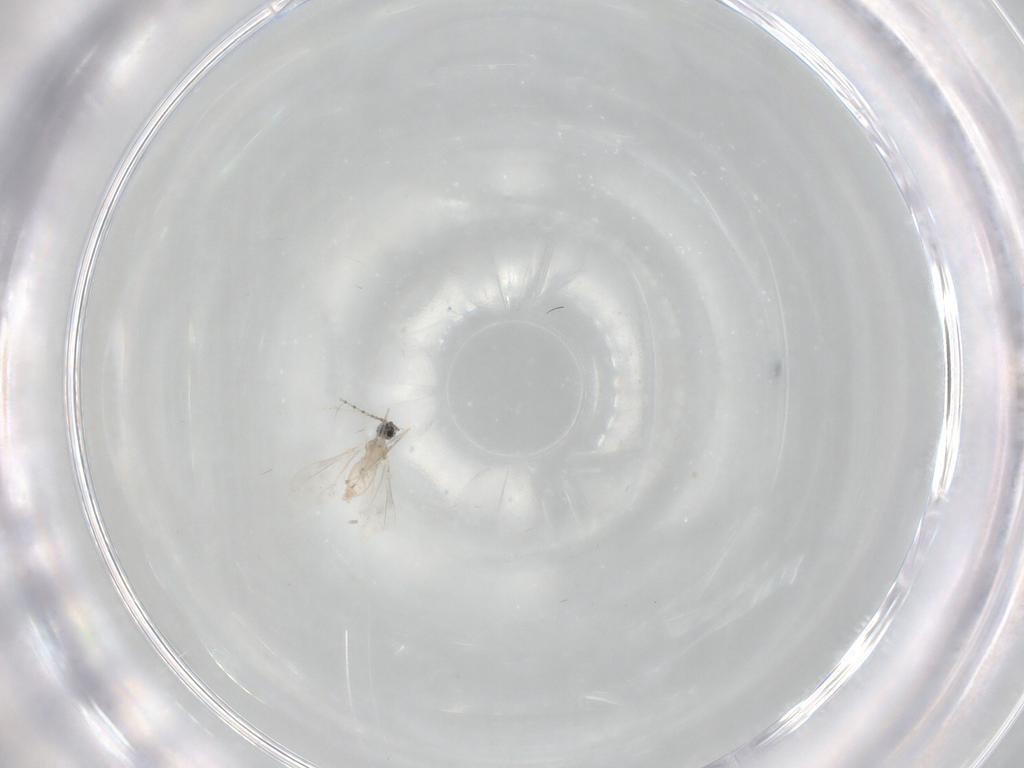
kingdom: Animalia
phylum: Arthropoda
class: Insecta
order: Diptera
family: Cecidomyiidae
